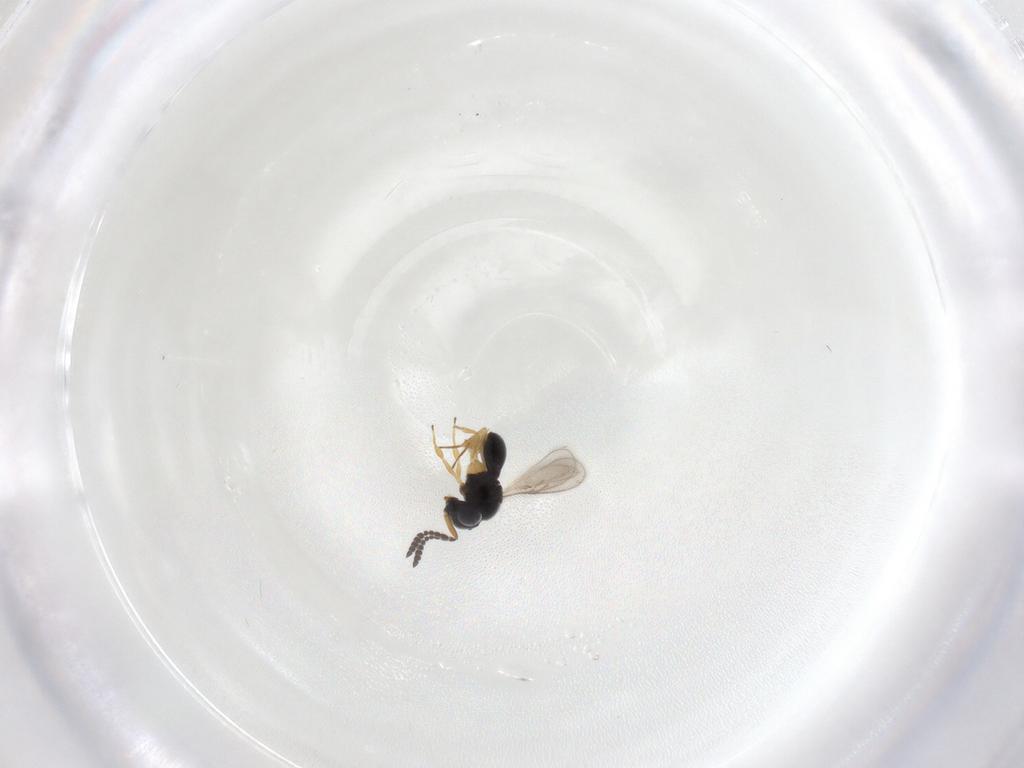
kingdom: Animalia
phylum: Arthropoda
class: Insecta
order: Hymenoptera
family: Scelionidae
